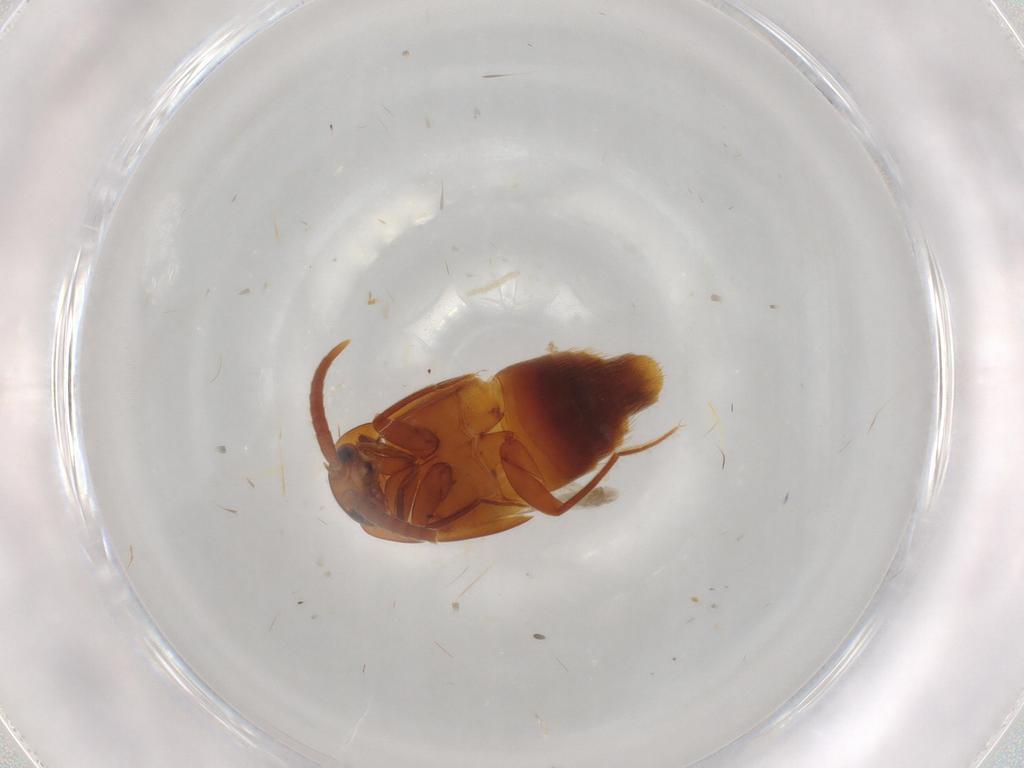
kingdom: Animalia
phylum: Arthropoda
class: Insecta
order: Coleoptera
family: Staphylinidae
